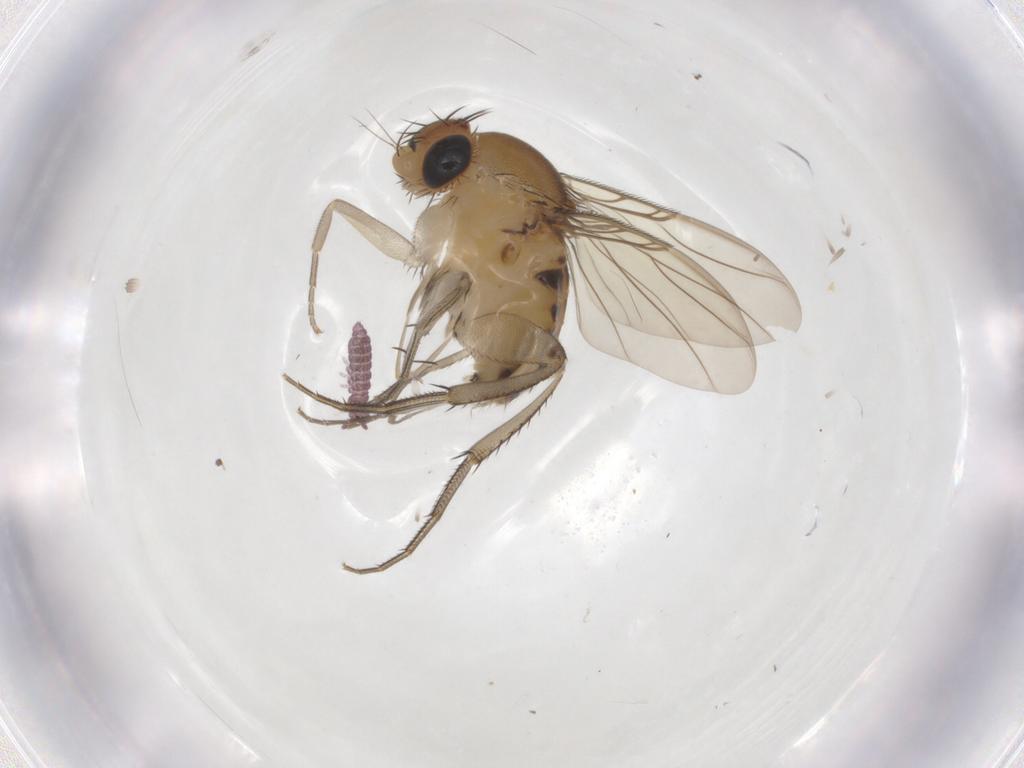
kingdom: Animalia
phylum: Arthropoda
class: Insecta
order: Diptera
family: Phoridae
